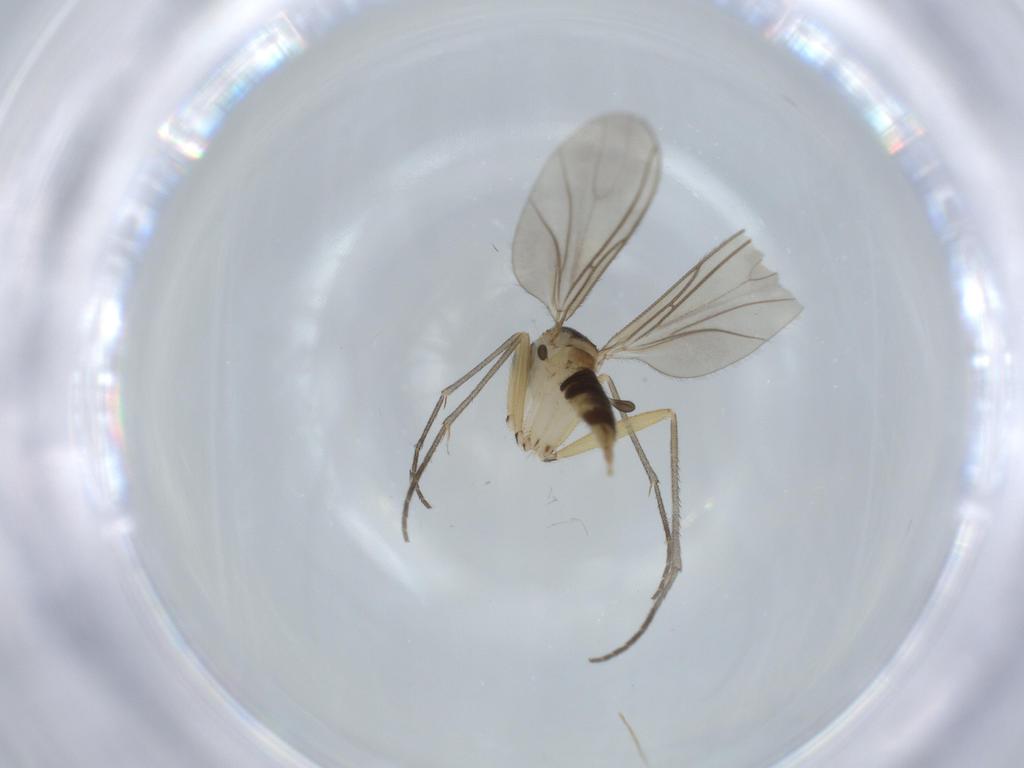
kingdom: Animalia
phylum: Arthropoda
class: Insecta
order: Diptera
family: Sciaridae
